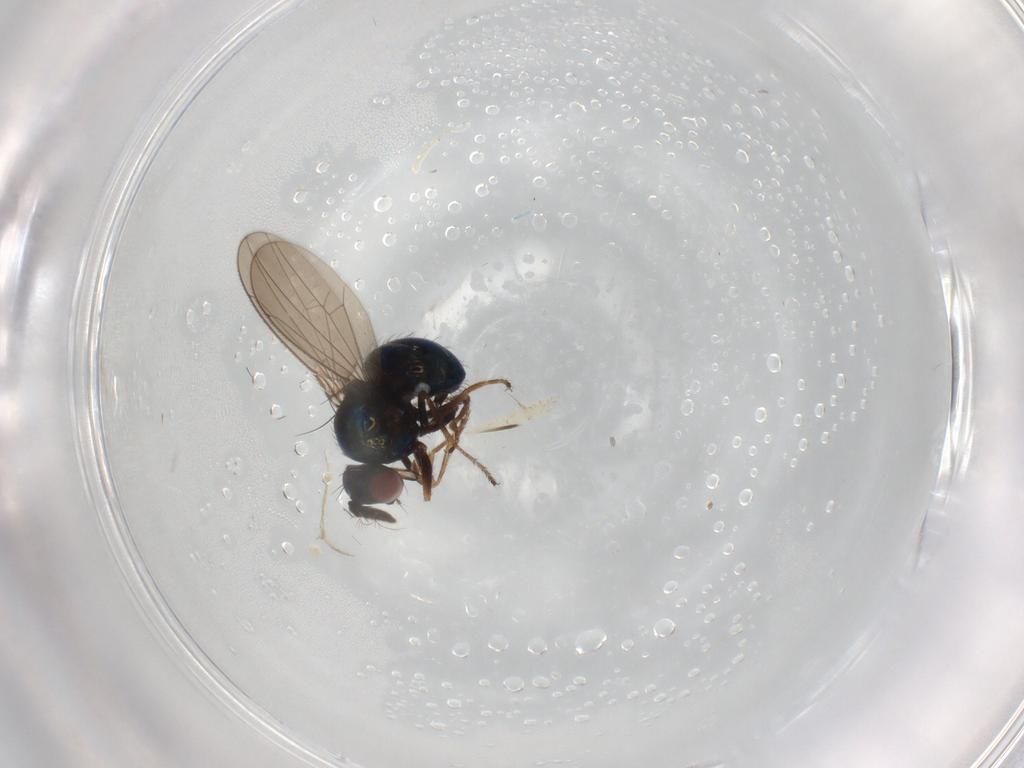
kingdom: Animalia
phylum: Arthropoda
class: Insecta
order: Diptera
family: Ephydridae
